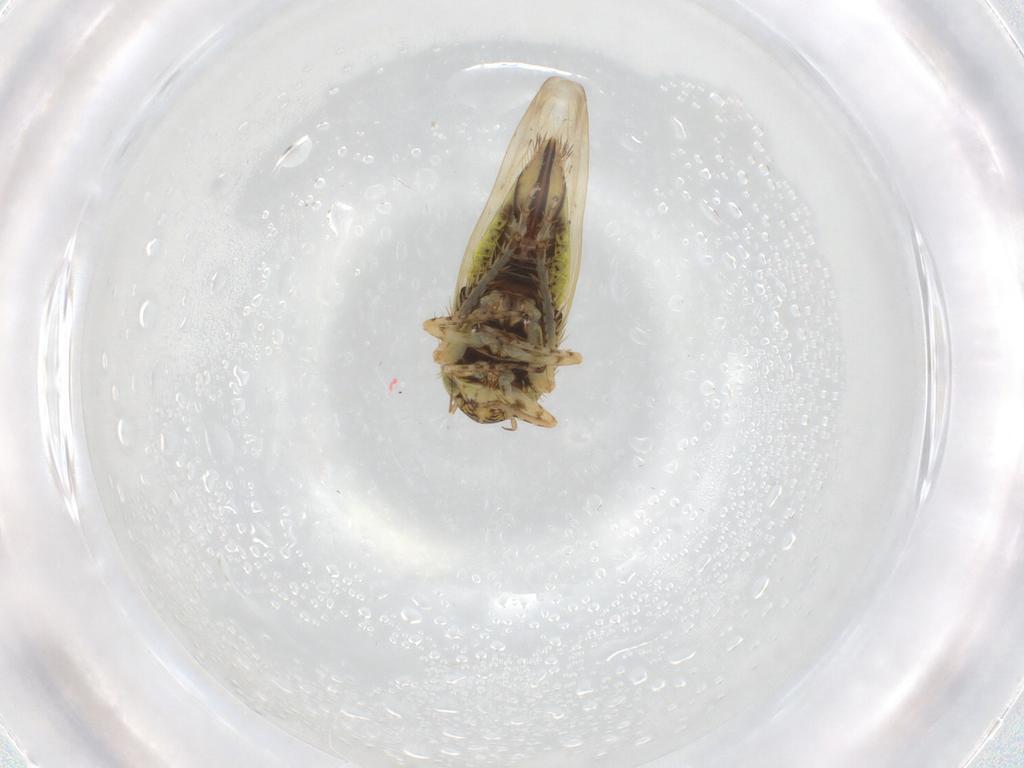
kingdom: Animalia
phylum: Arthropoda
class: Insecta
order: Hemiptera
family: Cicadellidae
